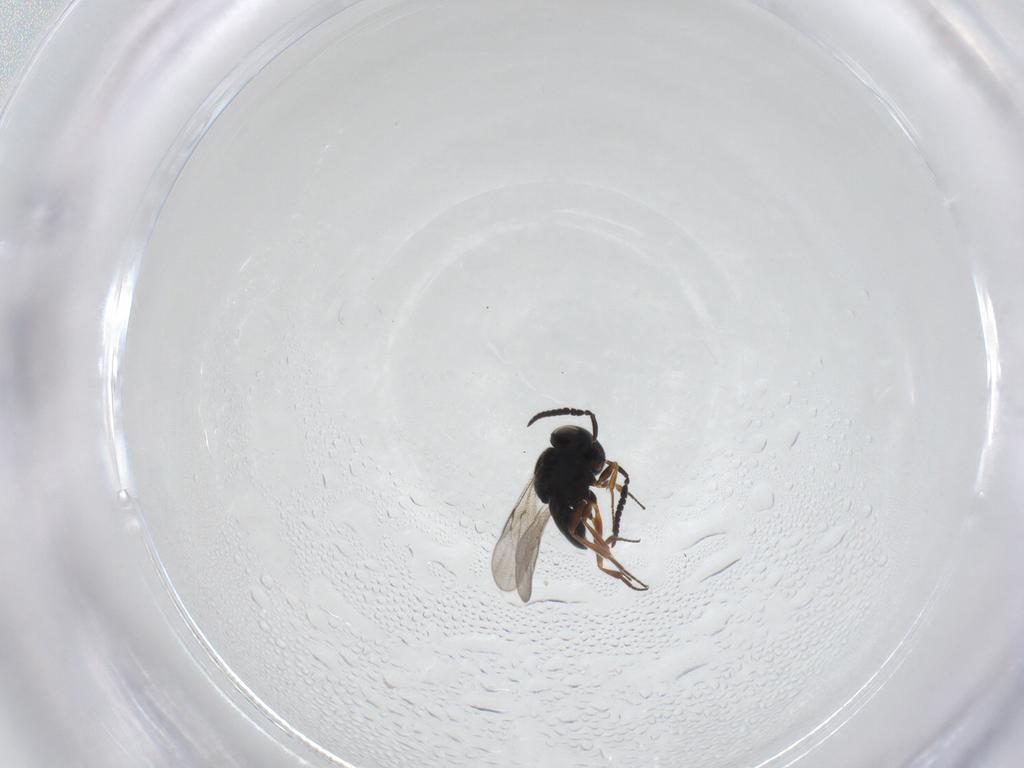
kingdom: Animalia
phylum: Arthropoda
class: Insecta
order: Hymenoptera
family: Scelionidae
